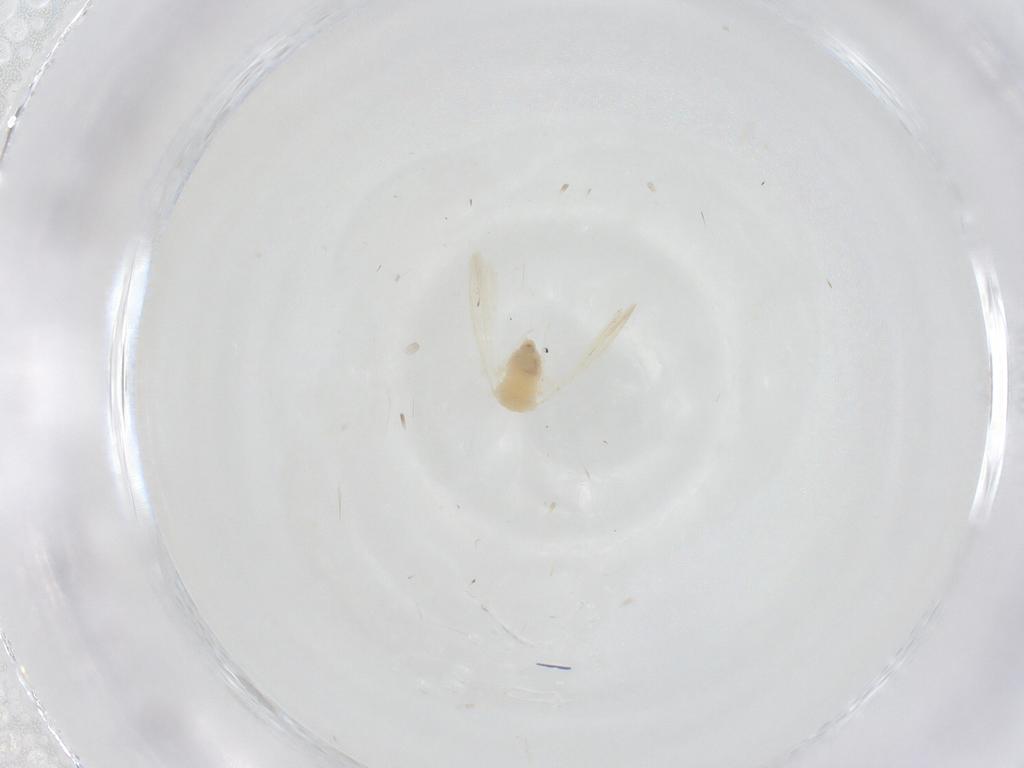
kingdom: Animalia
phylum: Arthropoda
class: Insecta
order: Hemiptera
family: Aleyrodidae
